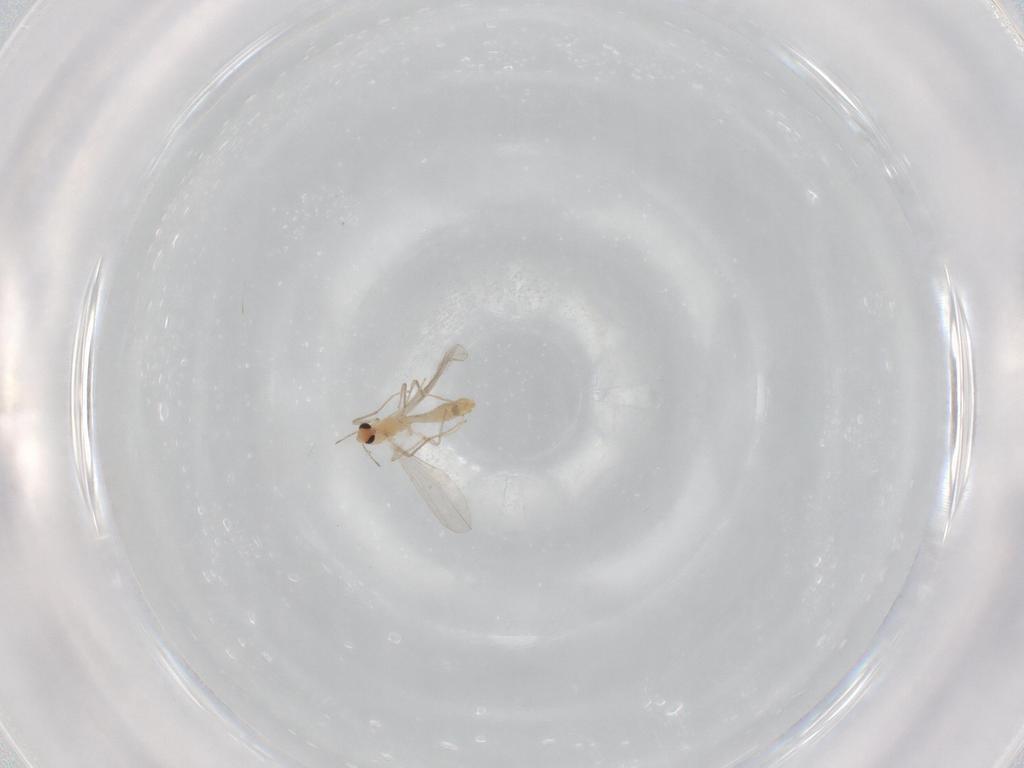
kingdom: Animalia
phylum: Arthropoda
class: Insecta
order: Diptera
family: Chironomidae
